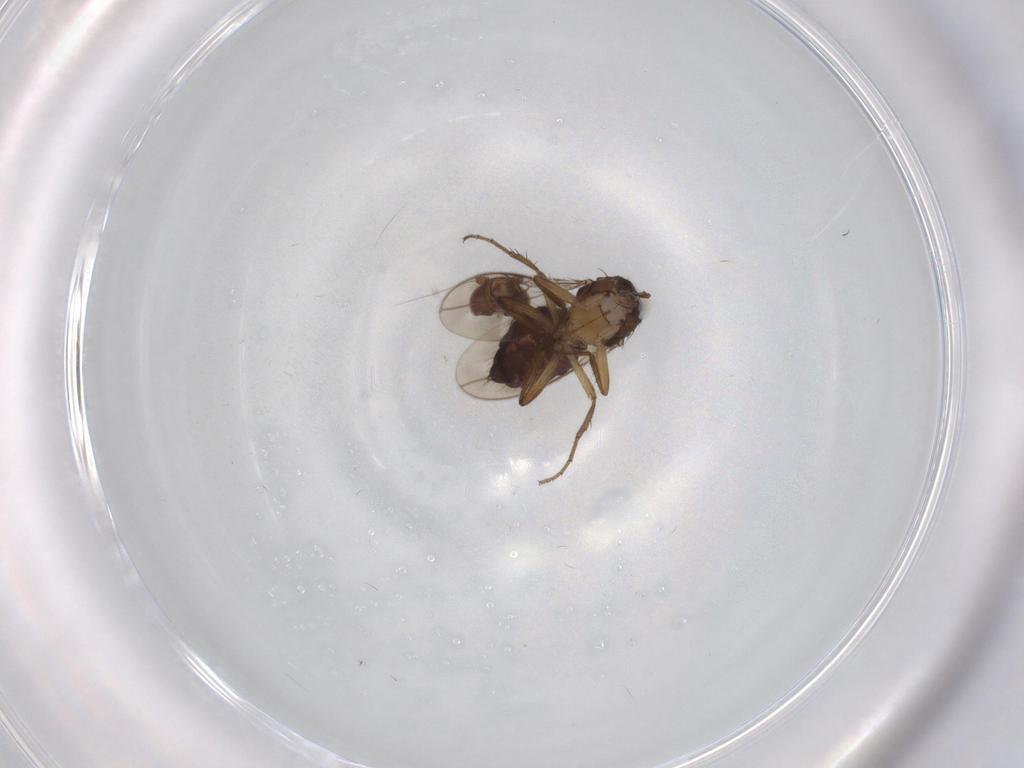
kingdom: Animalia
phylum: Arthropoda
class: Insecta
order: Diptera
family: Sphaeroceridae
